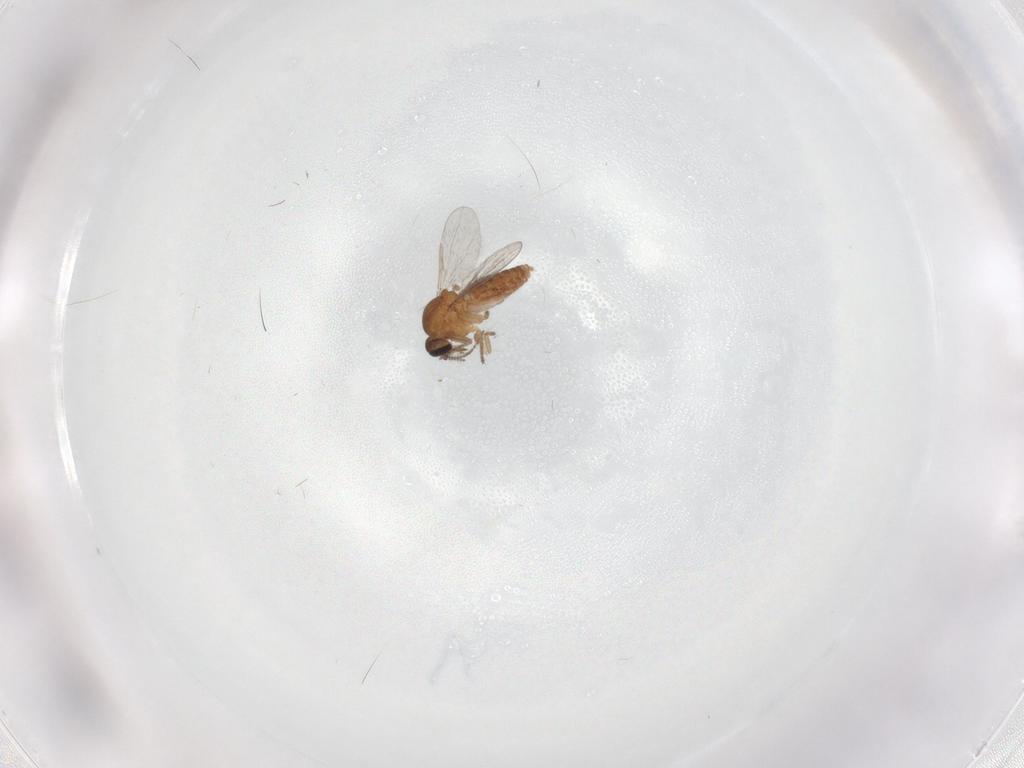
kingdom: Animalia
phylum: Arthropoda
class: Insecta
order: Diptera
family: Ceratopogonidae
